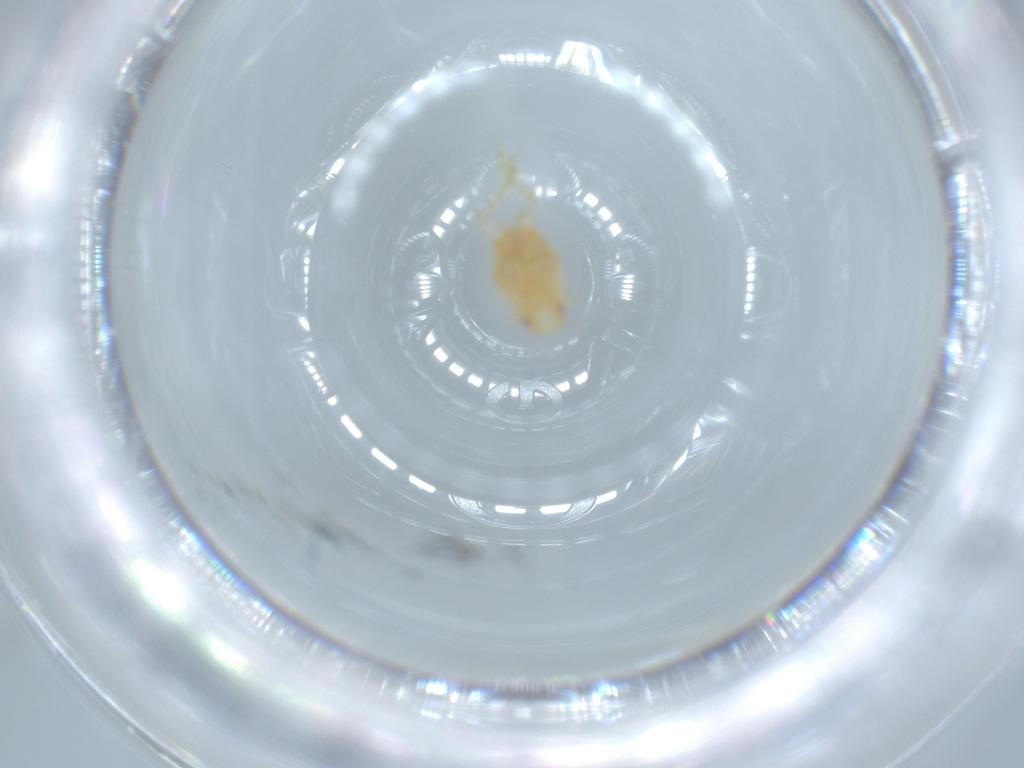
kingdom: Animalia
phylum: Arthropoda
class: Insecta
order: Hemiptera
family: Flatidae
